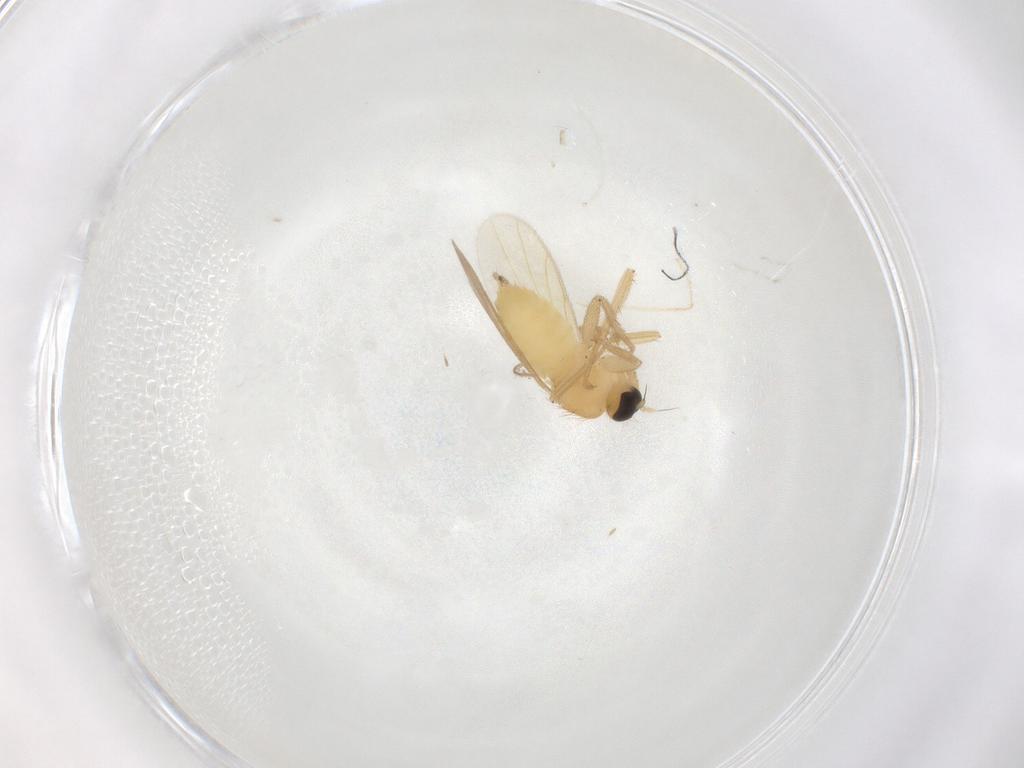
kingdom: Animalia
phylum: Arthropoda
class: Insecta
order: Diptera
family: Hybotidae
